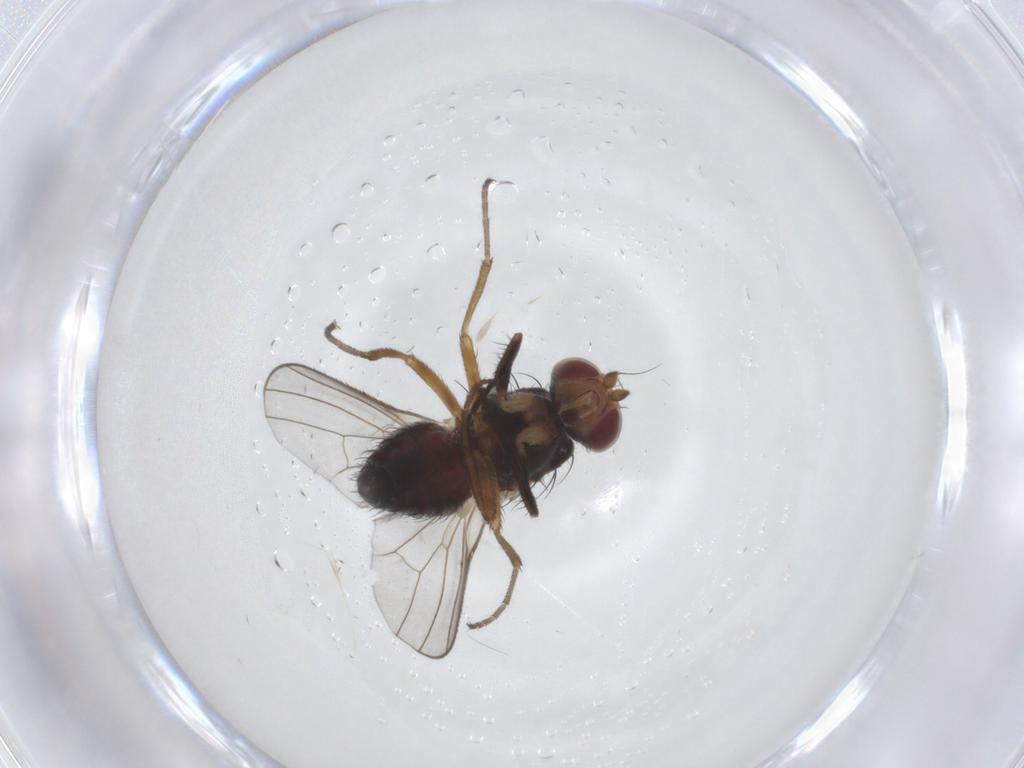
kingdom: Animalia
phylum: Arthropoda
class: Insecta
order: Diptera
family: Heleomyzidae
